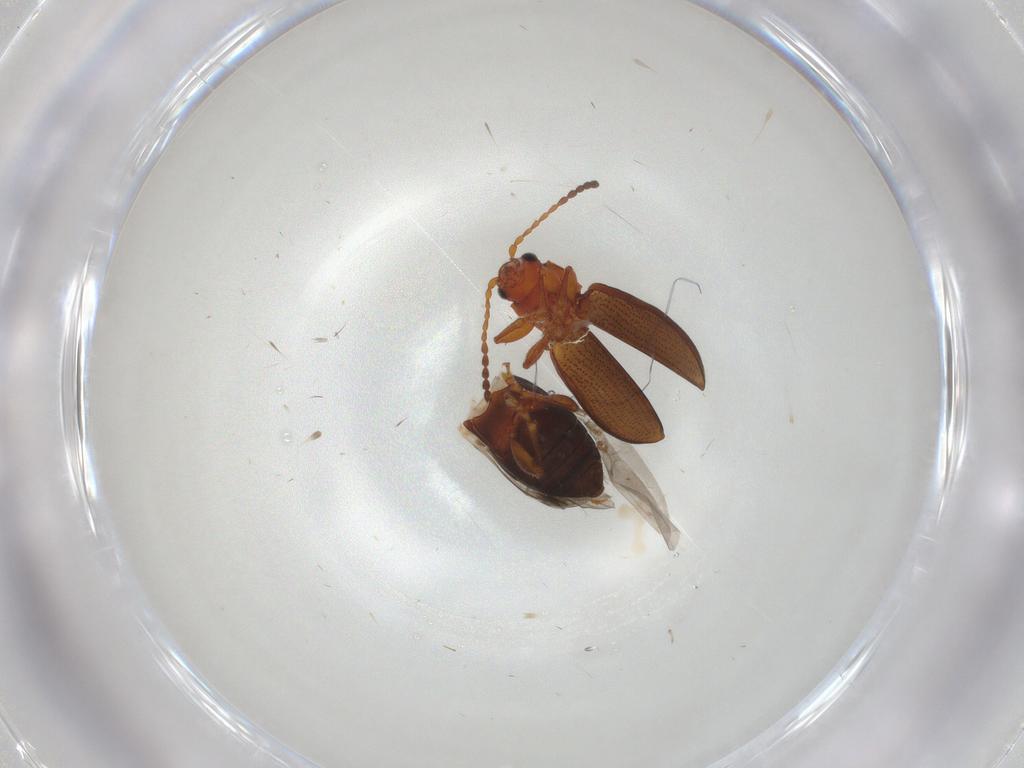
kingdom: Animalia
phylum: Arthropoda
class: Insecta
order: Coleoptera
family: Chrysomelidae
